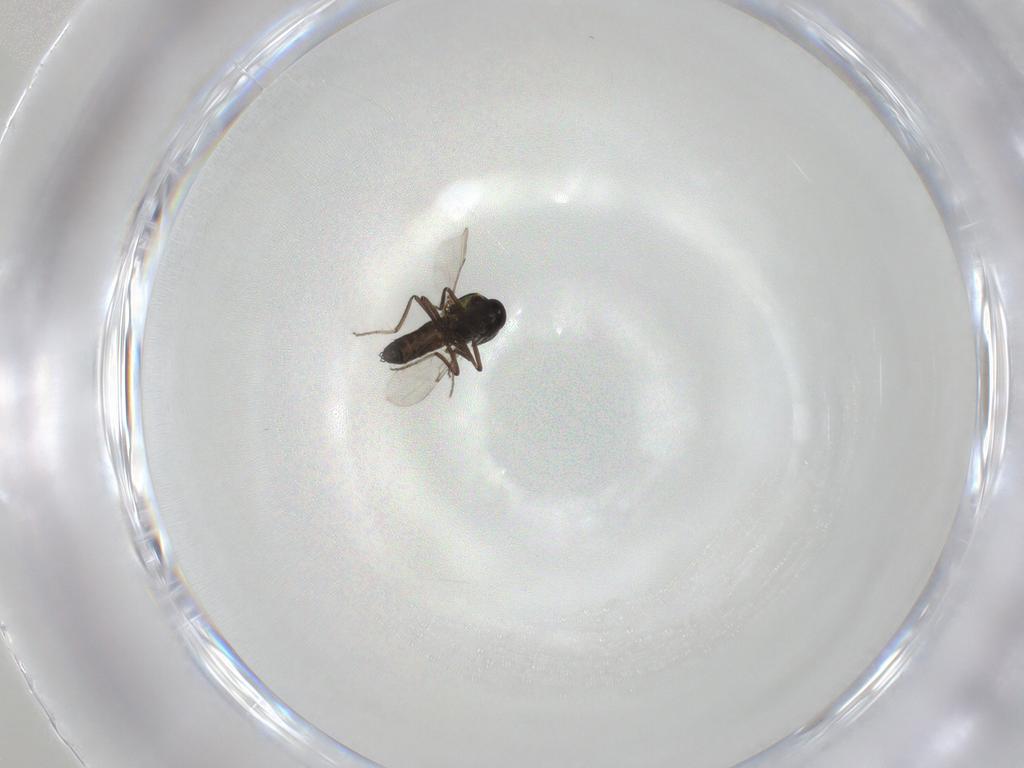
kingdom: Animalia
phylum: Arthropoda
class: Insecta
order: Diptera
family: Ceratopogonidae
